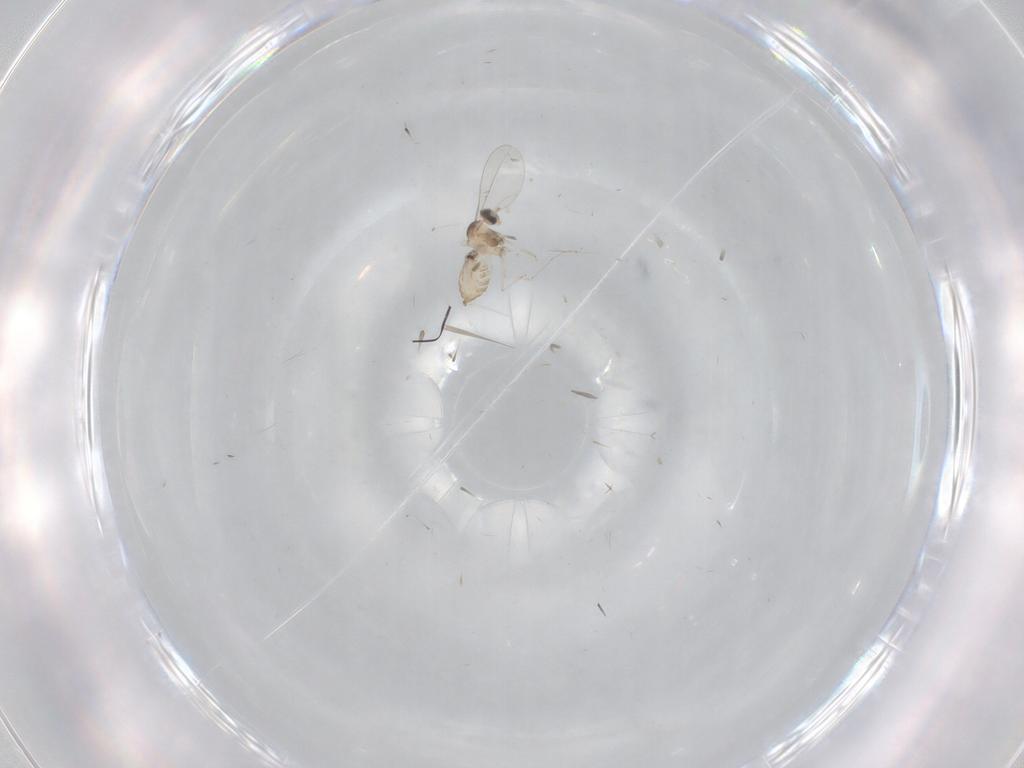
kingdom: Animalia
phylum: Arthropoda
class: Insecta
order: Diptera
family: Cecidomyiidae
